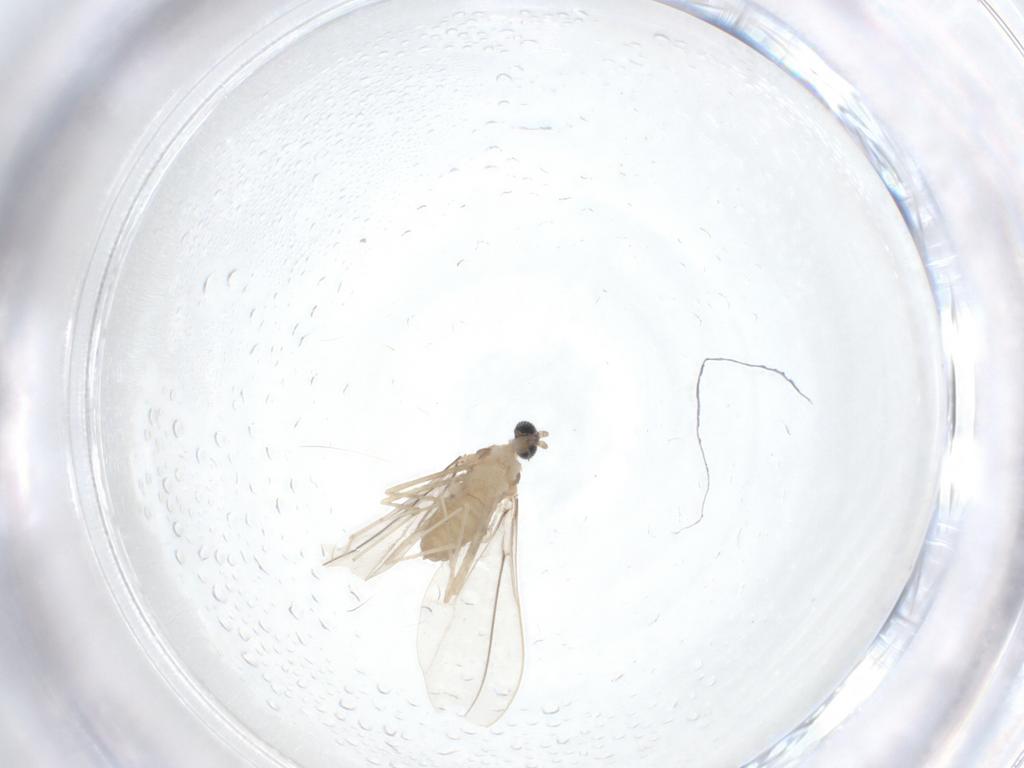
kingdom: Animalia
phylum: Arthropoda
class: Insecta
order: Diptera
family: Cecidomyiidae
